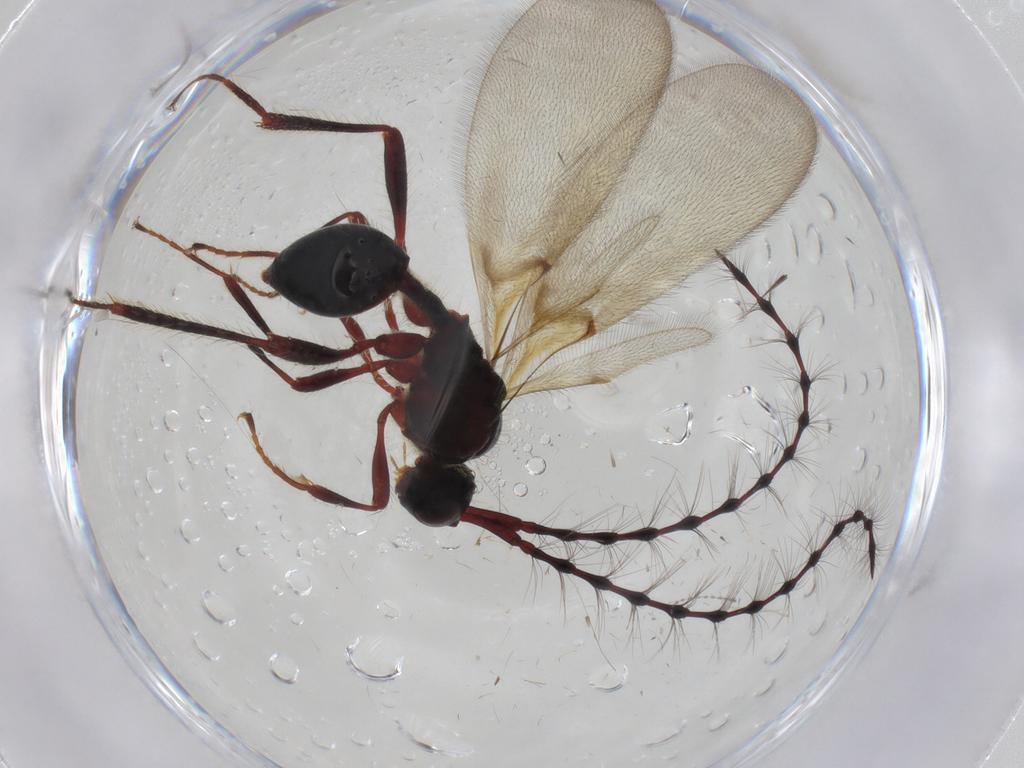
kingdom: Animalia
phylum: Arthropoda
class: Insecta
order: Hymenoptera
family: Diapriidae
